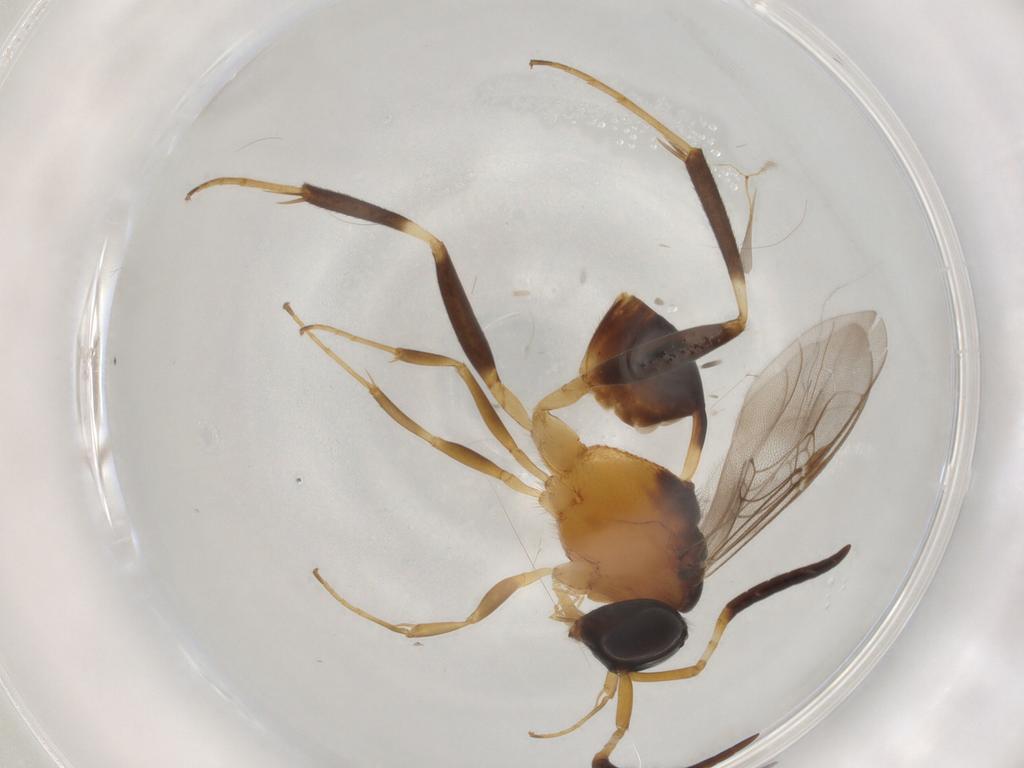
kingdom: Animalia
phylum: Arthropoda
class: Insecta
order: Hymenoptera
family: Evaniidae
